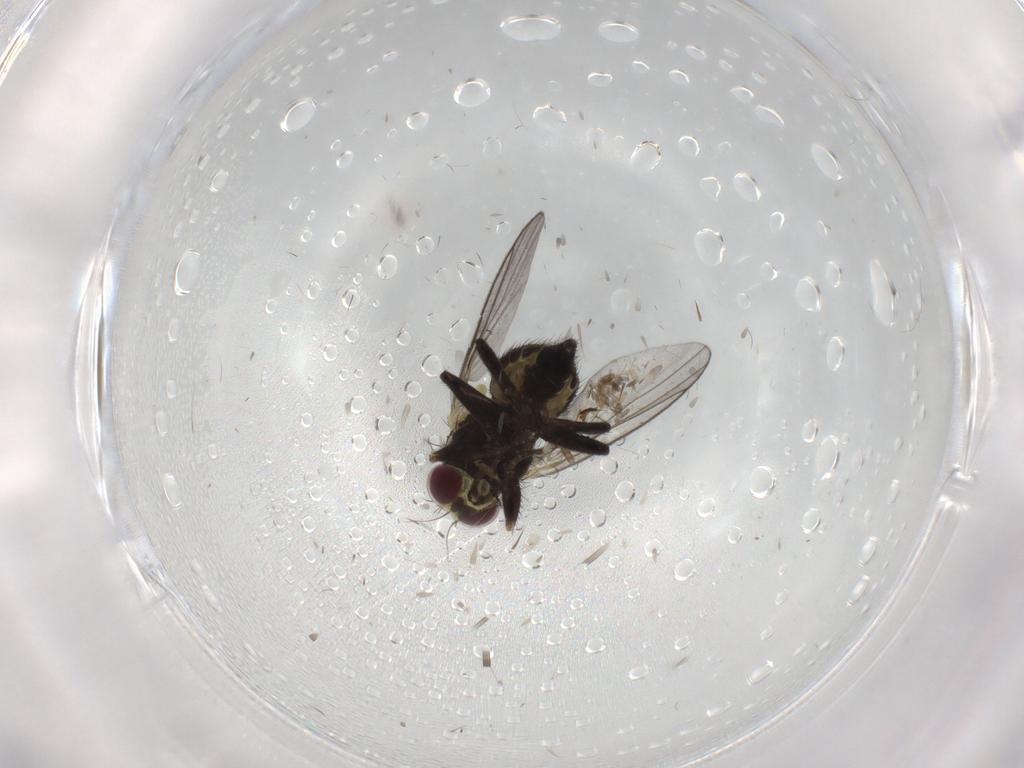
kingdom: Animalia
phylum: Arthropoda
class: Insecta
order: Diptera
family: Agromyzidae
